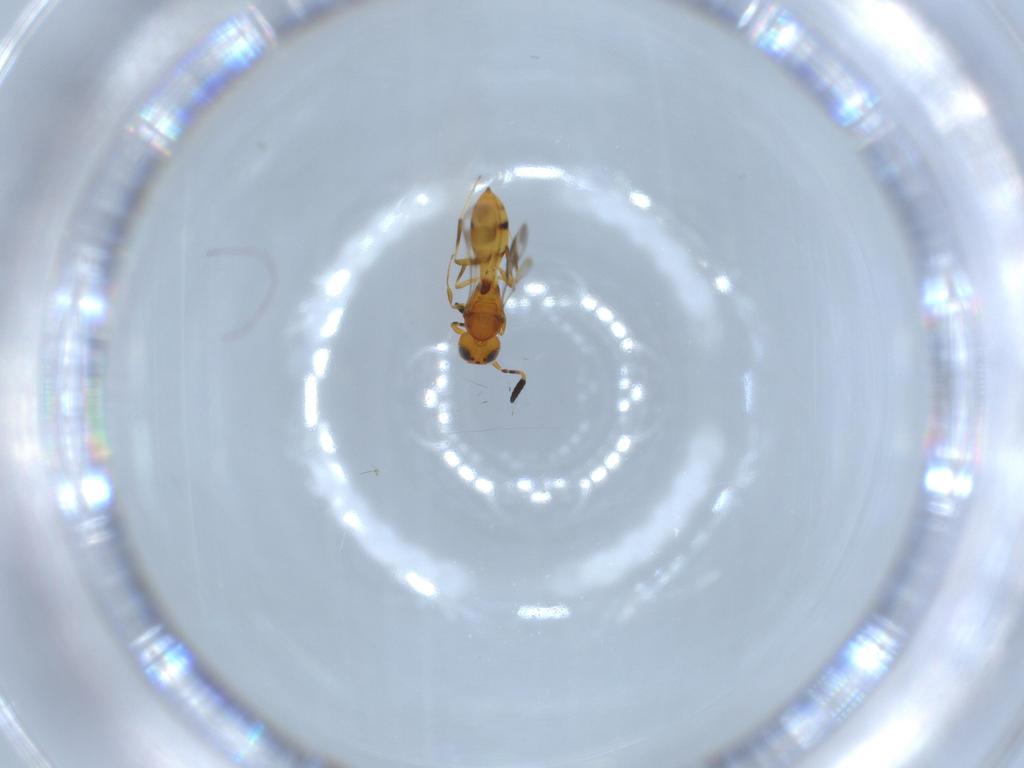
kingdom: Animalia
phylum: Arthropoda
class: Insecta
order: Hymenoptera
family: Scelionidae
